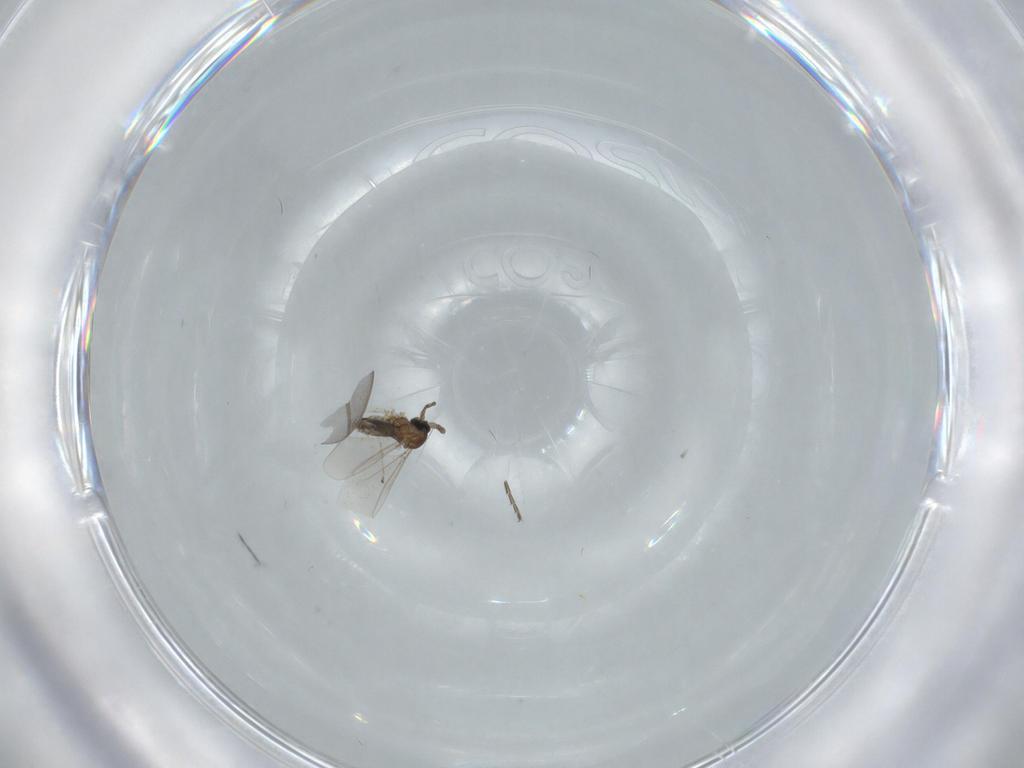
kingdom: Animalia
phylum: Arthropoda
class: Insecta
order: Diptera
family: Cecidomyiidae
